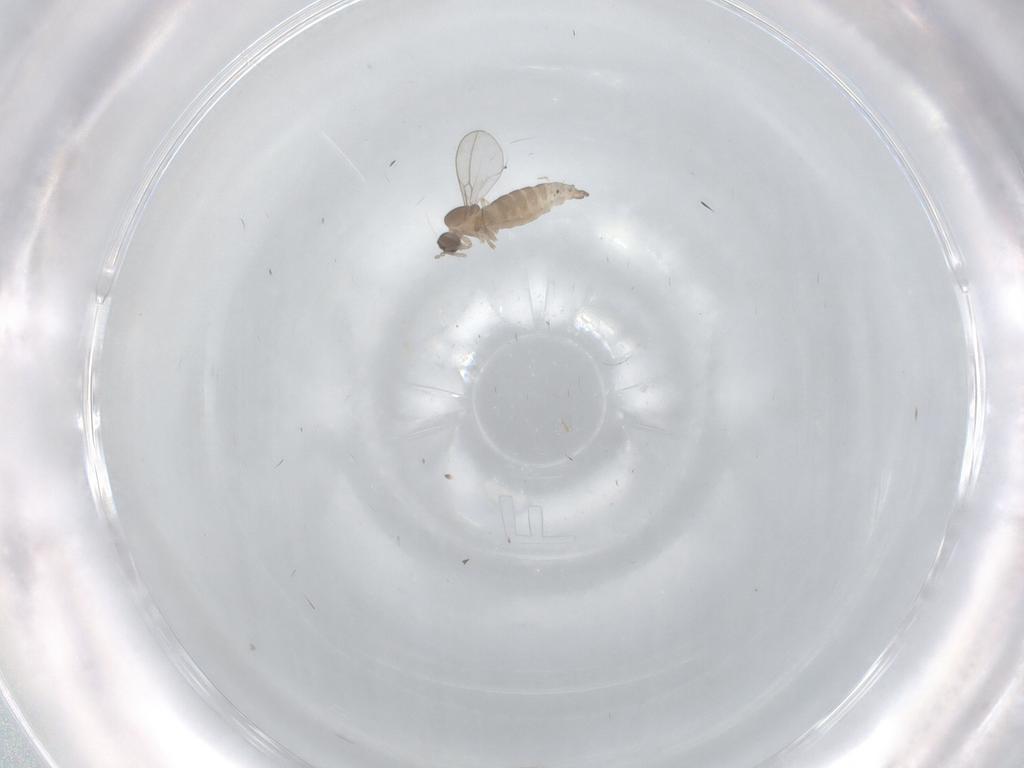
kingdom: Animalia
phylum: Arthropoda
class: Insecta
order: Diptera
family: Cecidomyiidae
